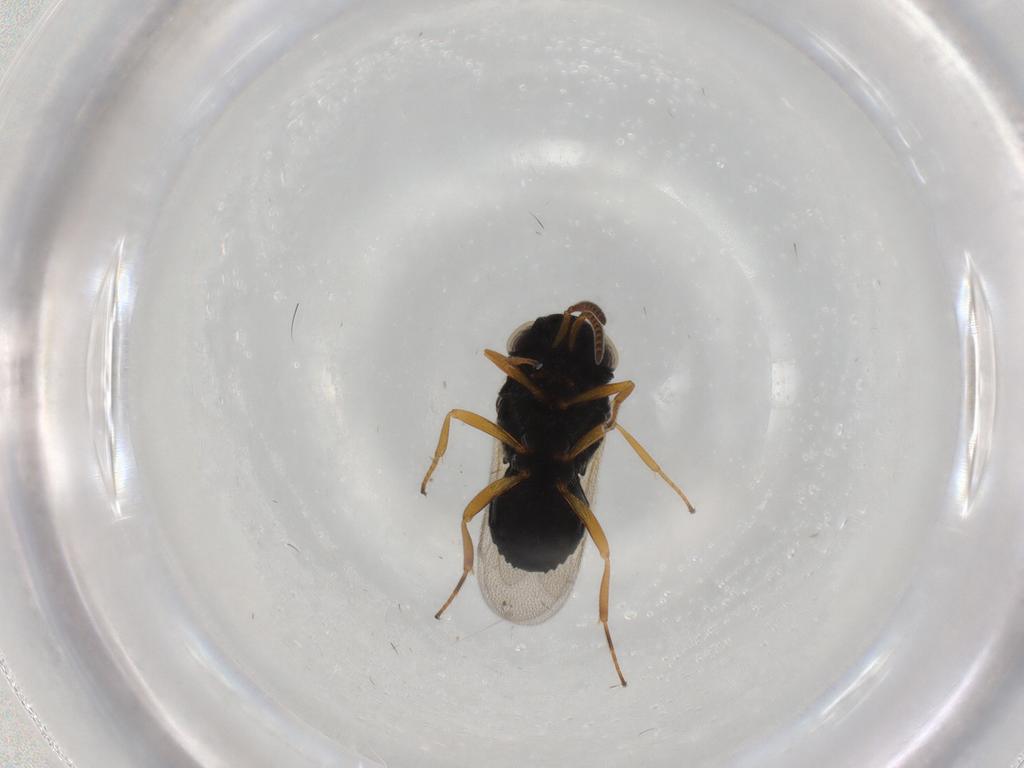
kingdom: Animalia
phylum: Arthropoda
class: Insecta
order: Hymenoptera
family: Scelionidae
